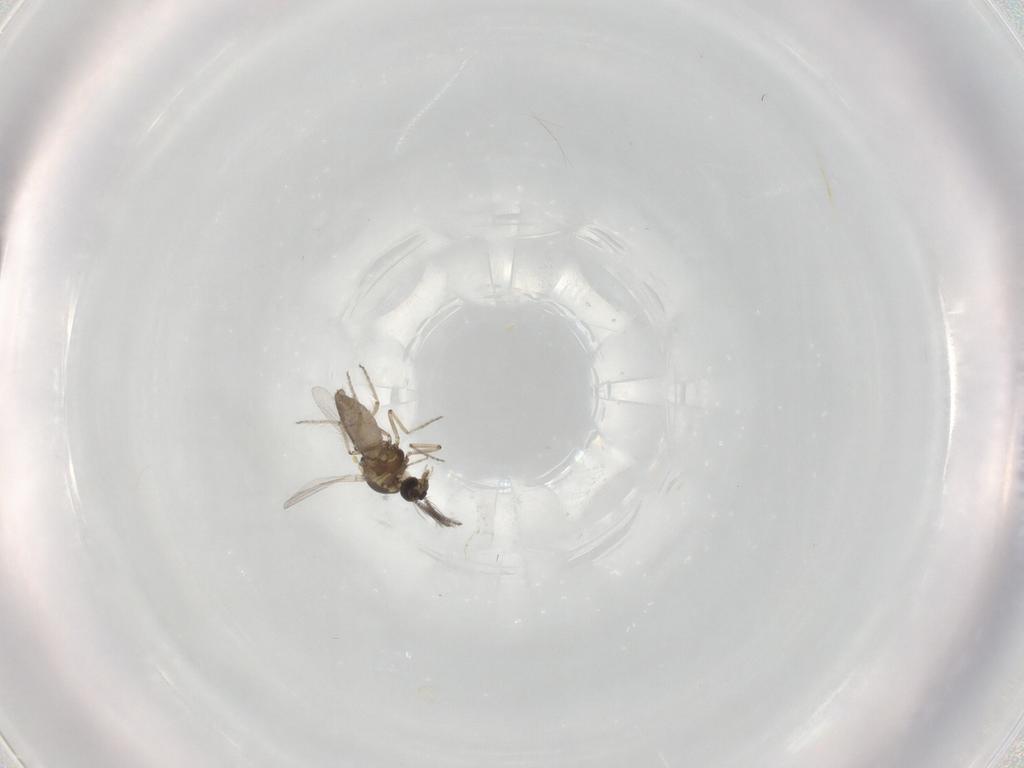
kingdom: Animalia
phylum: Arthropoda
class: Insecta
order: Diptera
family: Ceratopogonidae
